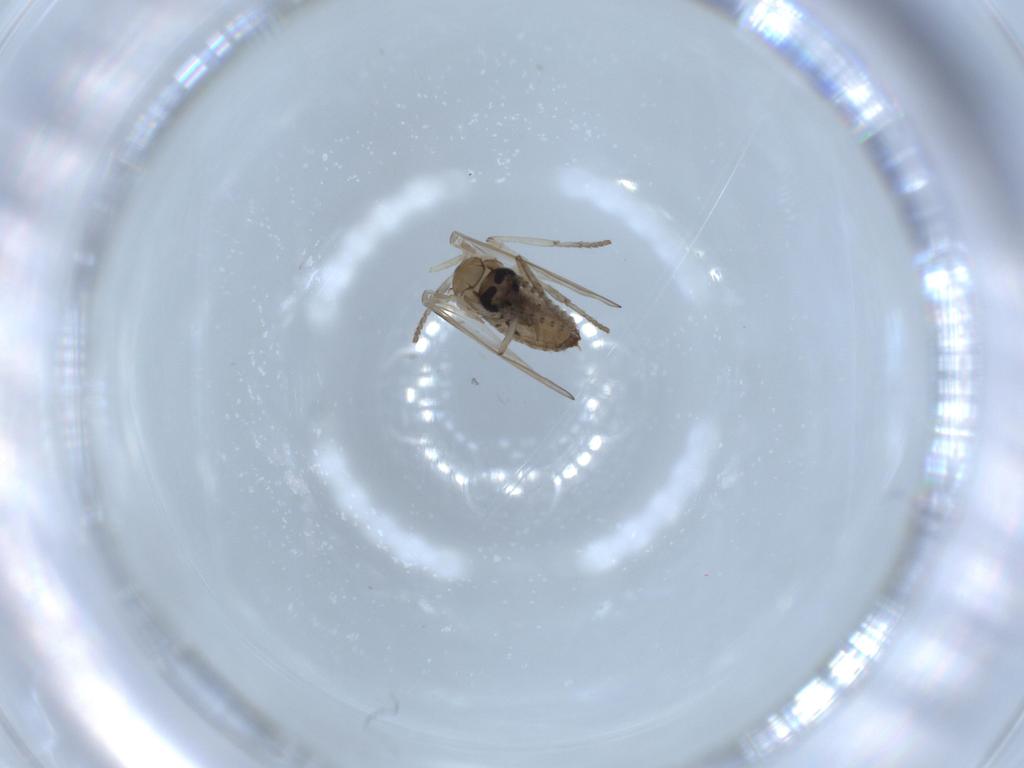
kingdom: Animalia
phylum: Arthropoda
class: Insecta
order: Diptera
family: Psychodidae
